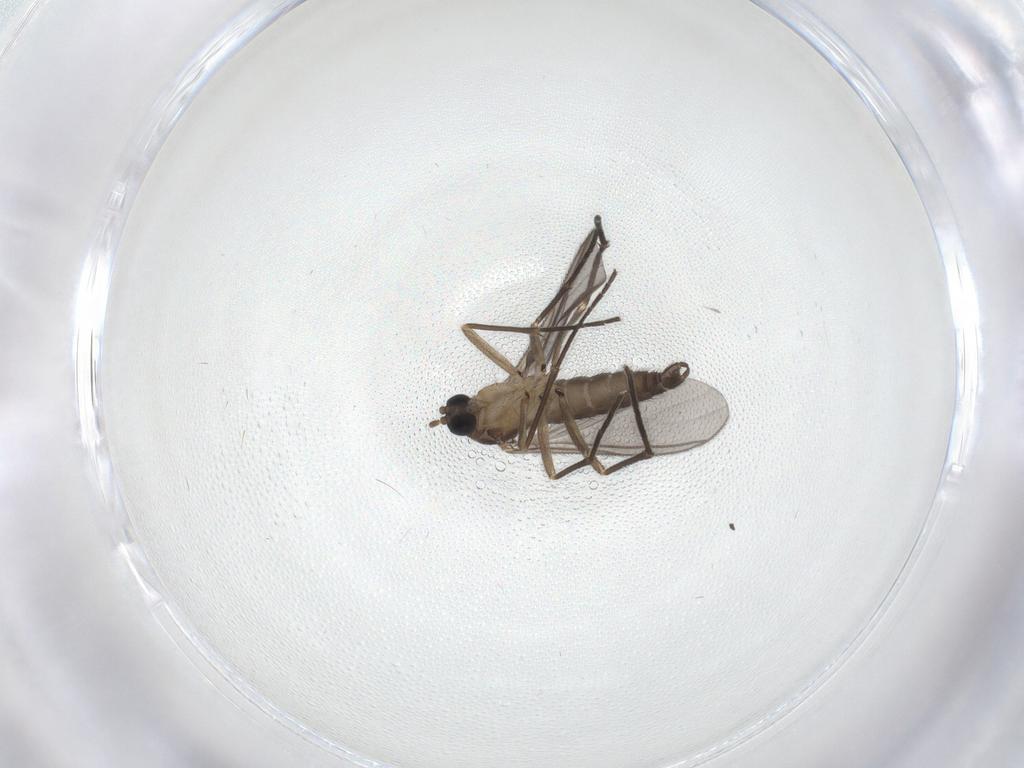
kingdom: Animalia
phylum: Arthropoda
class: Insecta
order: Diptera
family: Sciaridae
